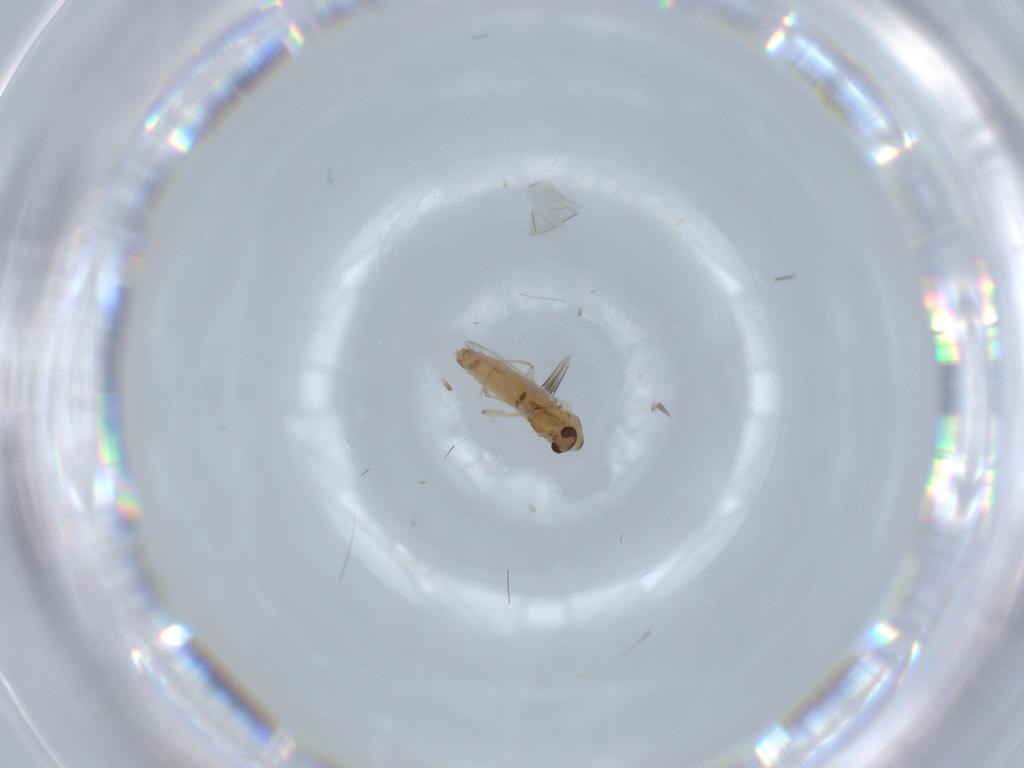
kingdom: Animalia
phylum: Arthropoda
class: Insecta
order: Diptera
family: Chironomidae
